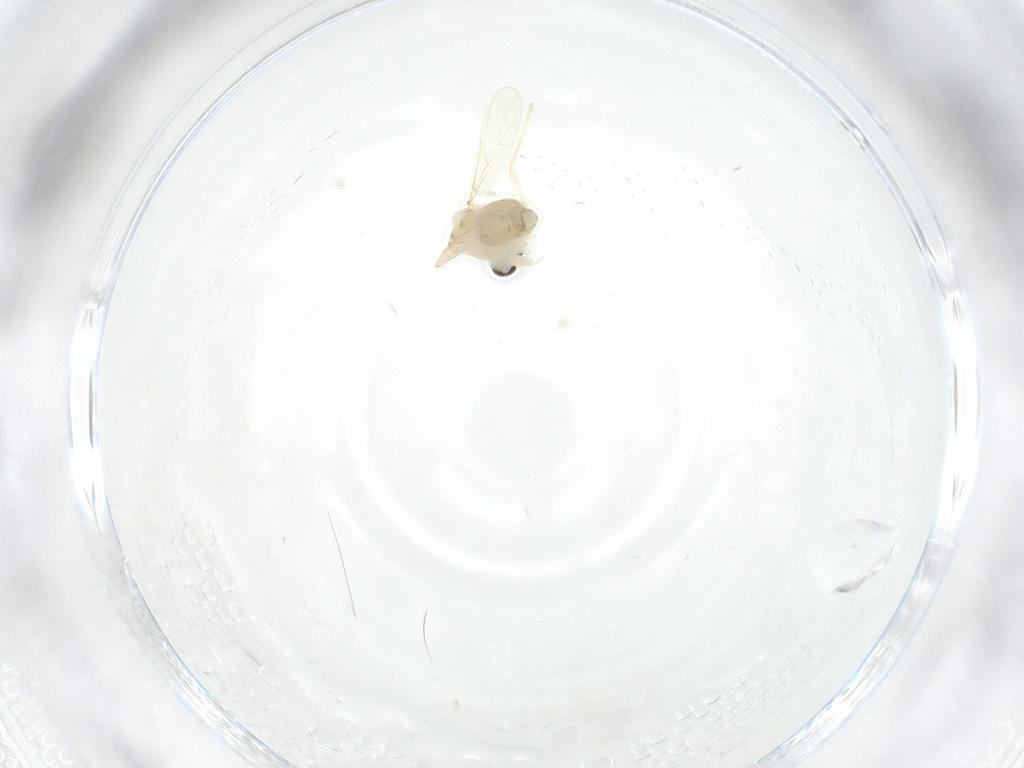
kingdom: Animalia
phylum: Arthropoda
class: Insecta
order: Diptera
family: Culicidae
